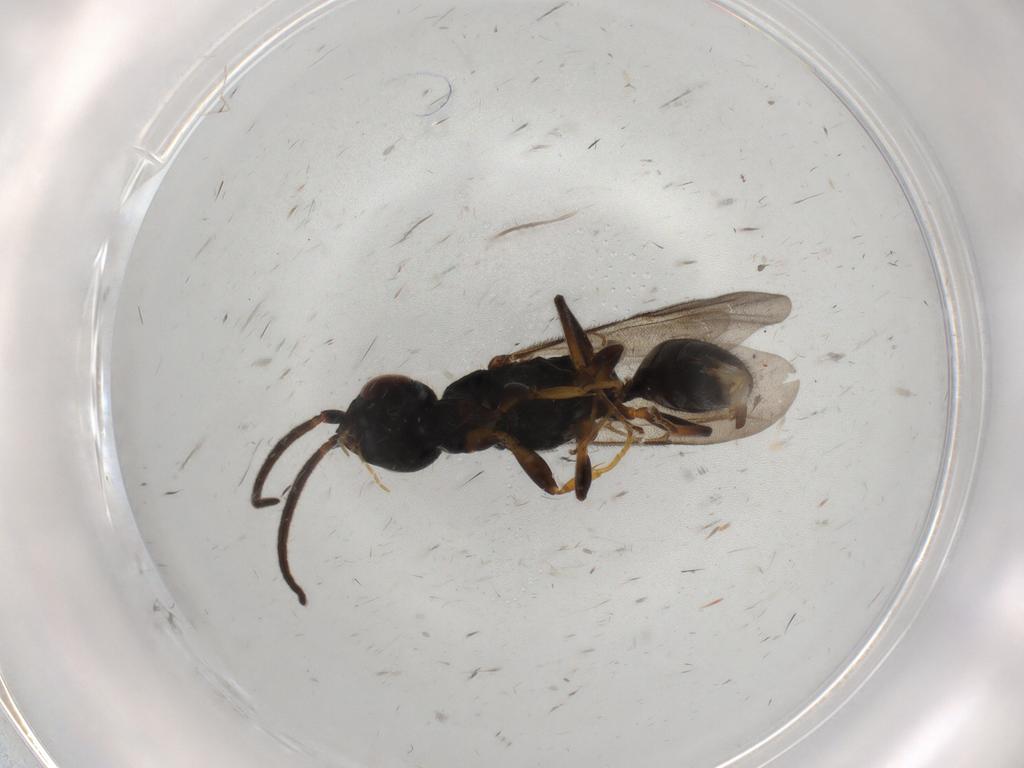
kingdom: Animalia
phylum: Arthropoda
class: Insecta
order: Hymenoptera
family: Bethylidae
